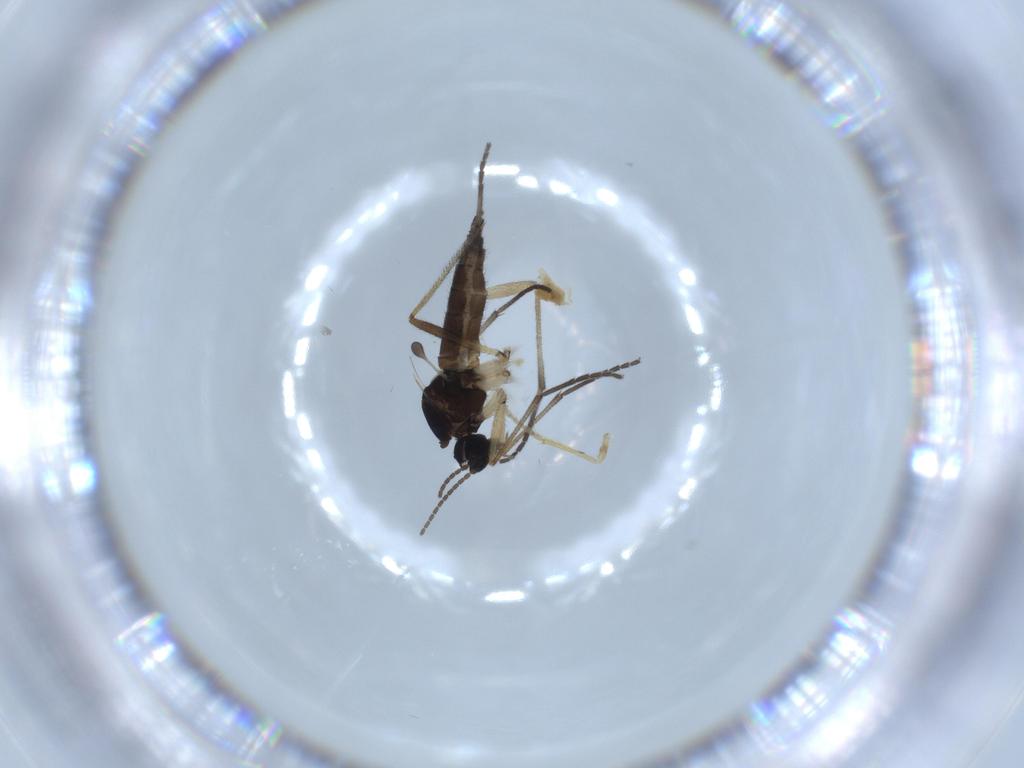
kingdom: Animalia
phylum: Arthropoda
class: Insecta
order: Diptera
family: Sciaridae
